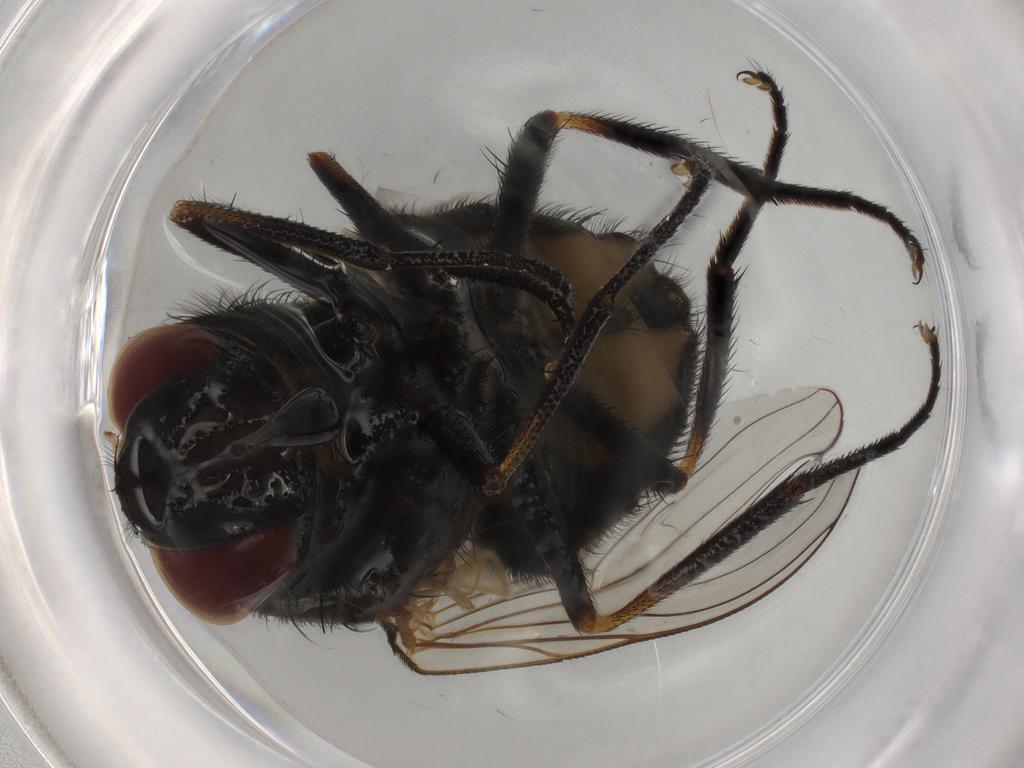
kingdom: Animalia
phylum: Arthropoda
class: Insecta
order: Diptera
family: Muscidae
